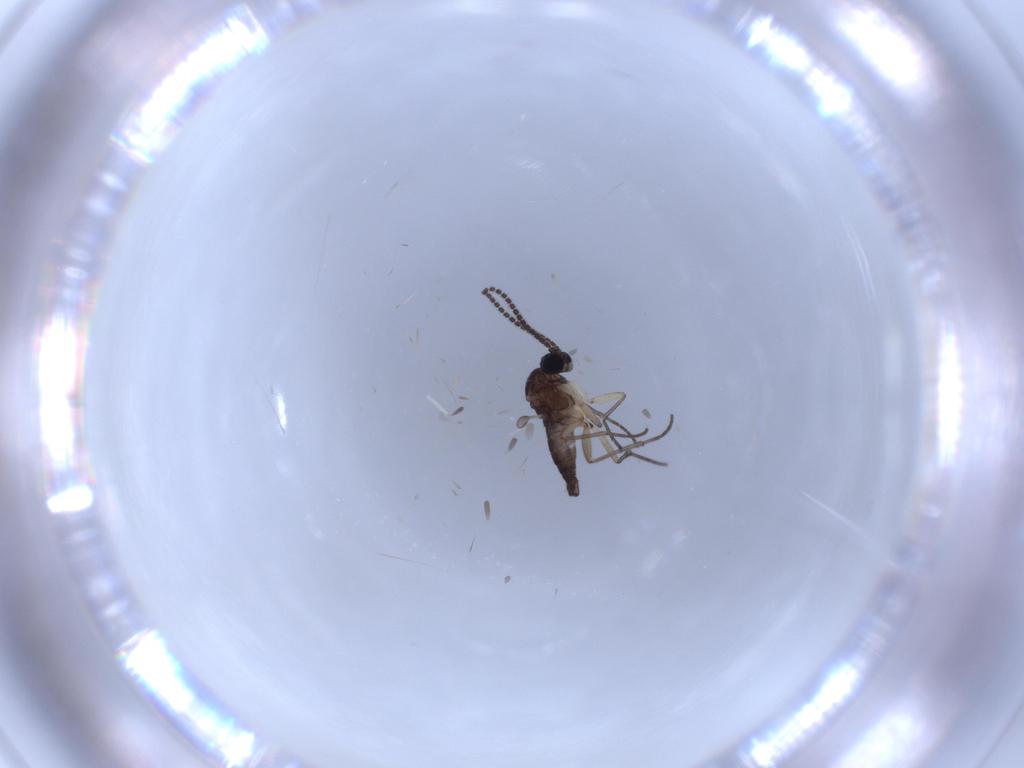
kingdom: Animalia
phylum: Arthropoda
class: Insecta
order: Diptera
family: Sciaridae
